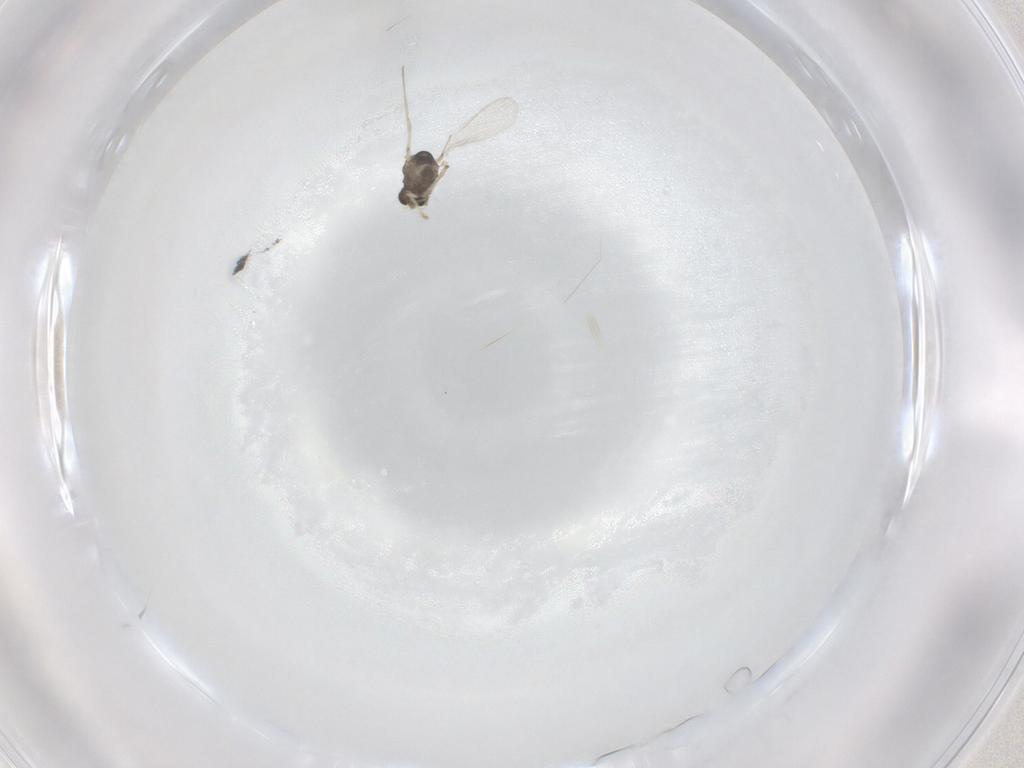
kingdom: Animalia
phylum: Arthropoda
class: Insecta
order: Diptera
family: Chironomidae
